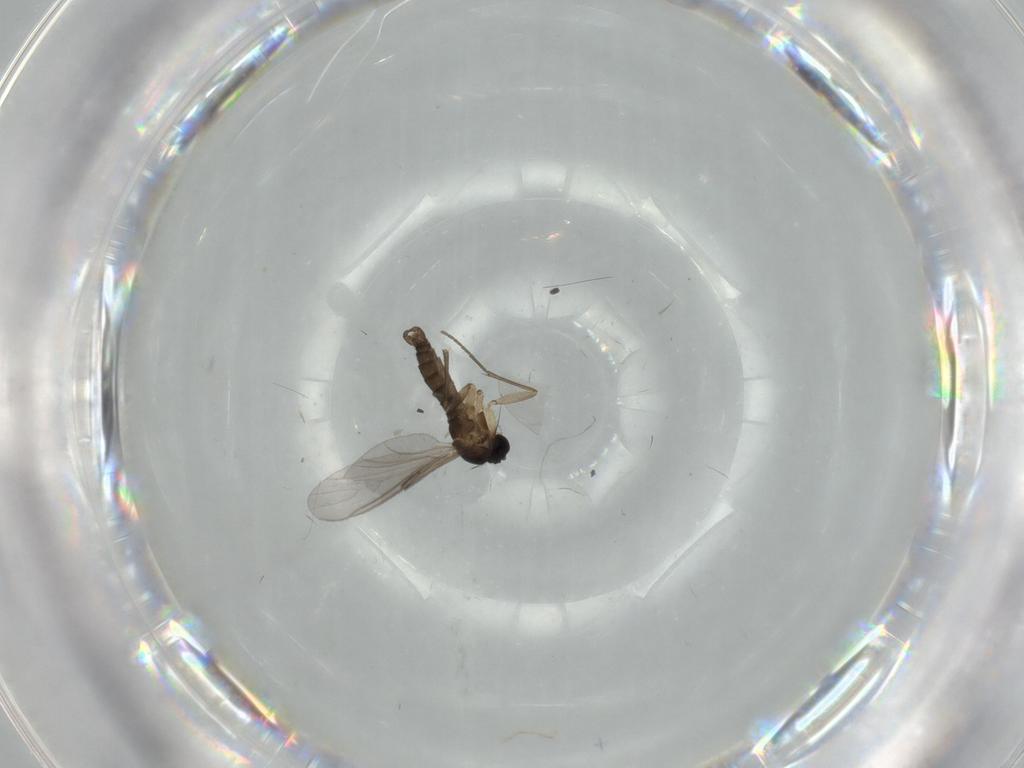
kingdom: Animalia
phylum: Arthropoda
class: Insecta
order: Diptera
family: Sciaridae
